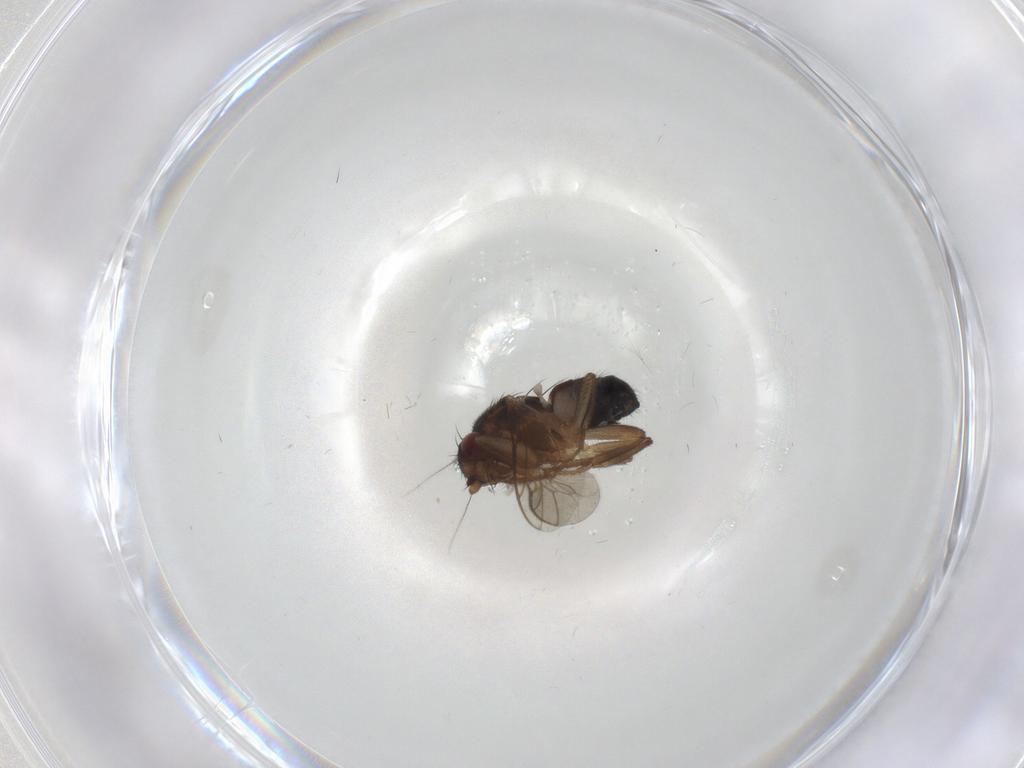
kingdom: Animalia
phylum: Arthropoda
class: Insecta
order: Diptera
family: Sphaeroceridae
